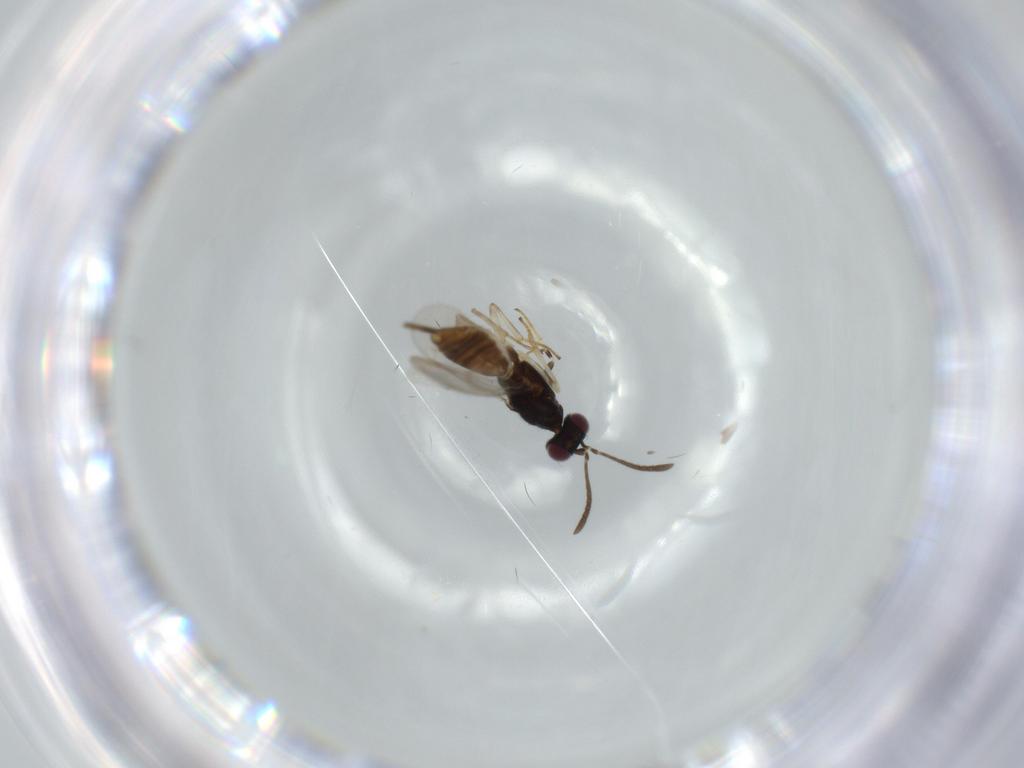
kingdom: Animalia
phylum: Arthropoda
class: Insecta
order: Hymenoptera
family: Eupelmidae
